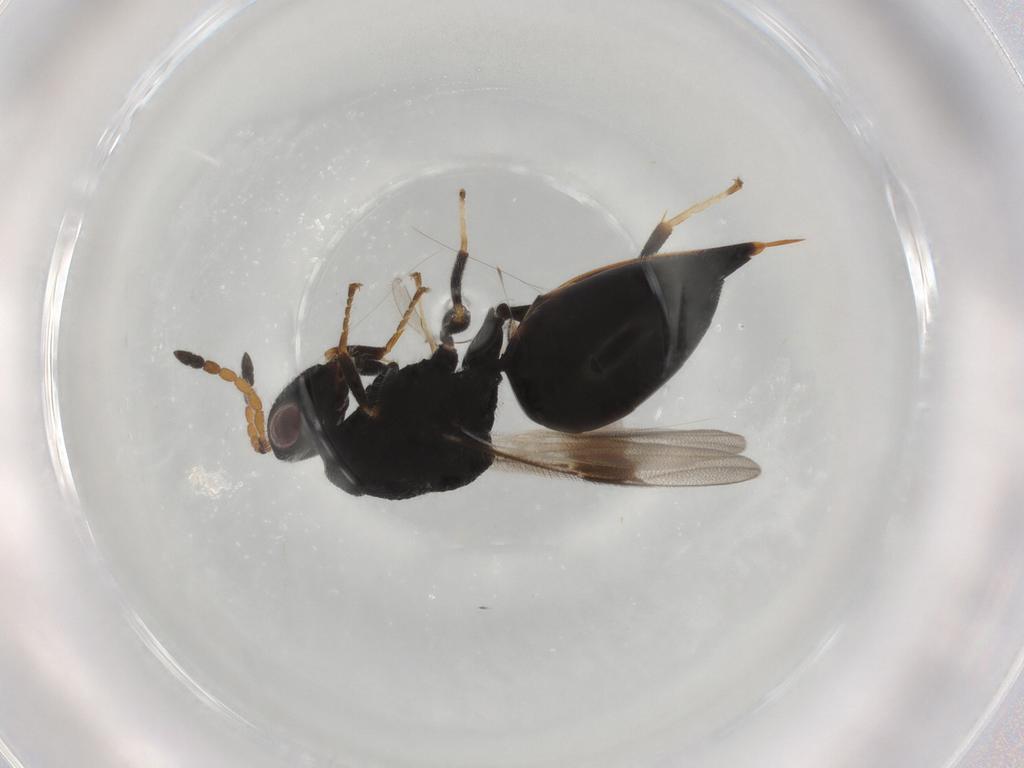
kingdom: Animalia
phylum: Arthropoda
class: Insecta
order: Hymenoptera
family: Scelionidae
